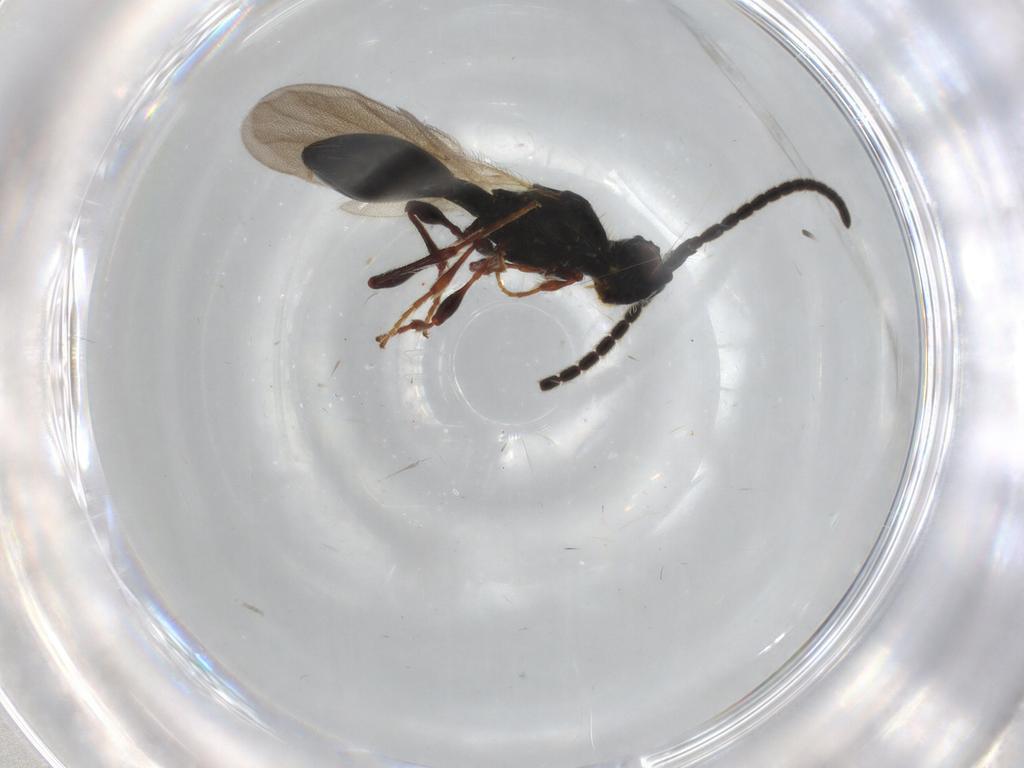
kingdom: Animalia
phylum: Arthropoda
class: Insecta
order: Hymenoptera
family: Diapriidae
